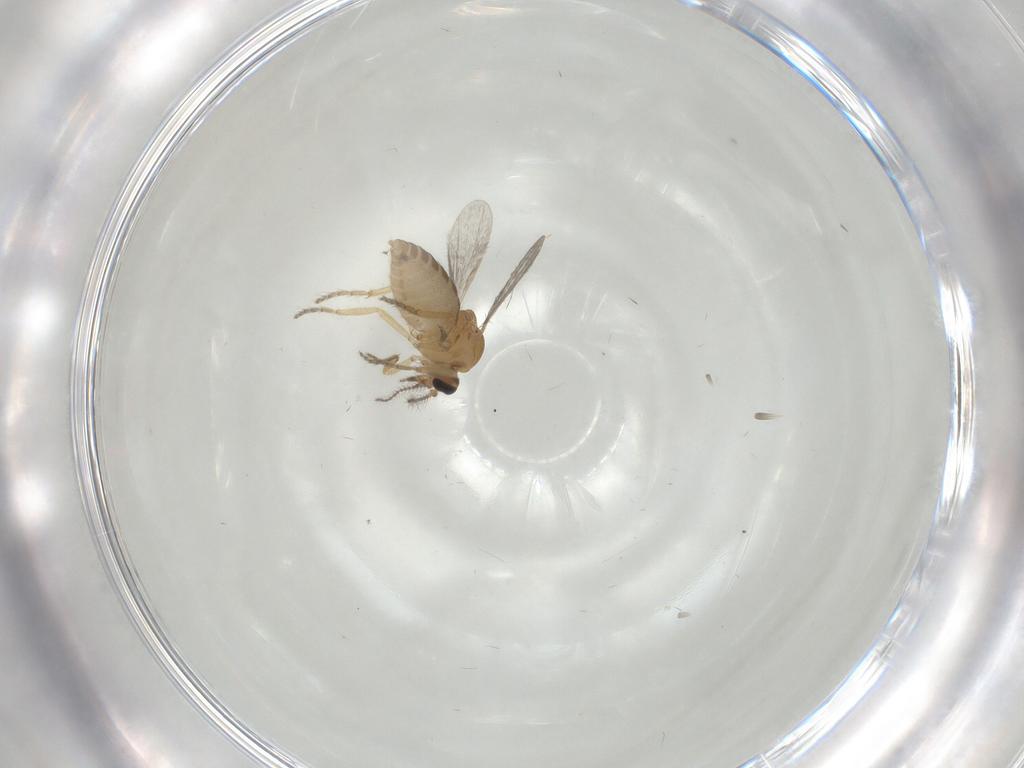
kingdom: Animalia
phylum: Arthropoda
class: Insecta
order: Diptera
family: Ceratopogonidae
